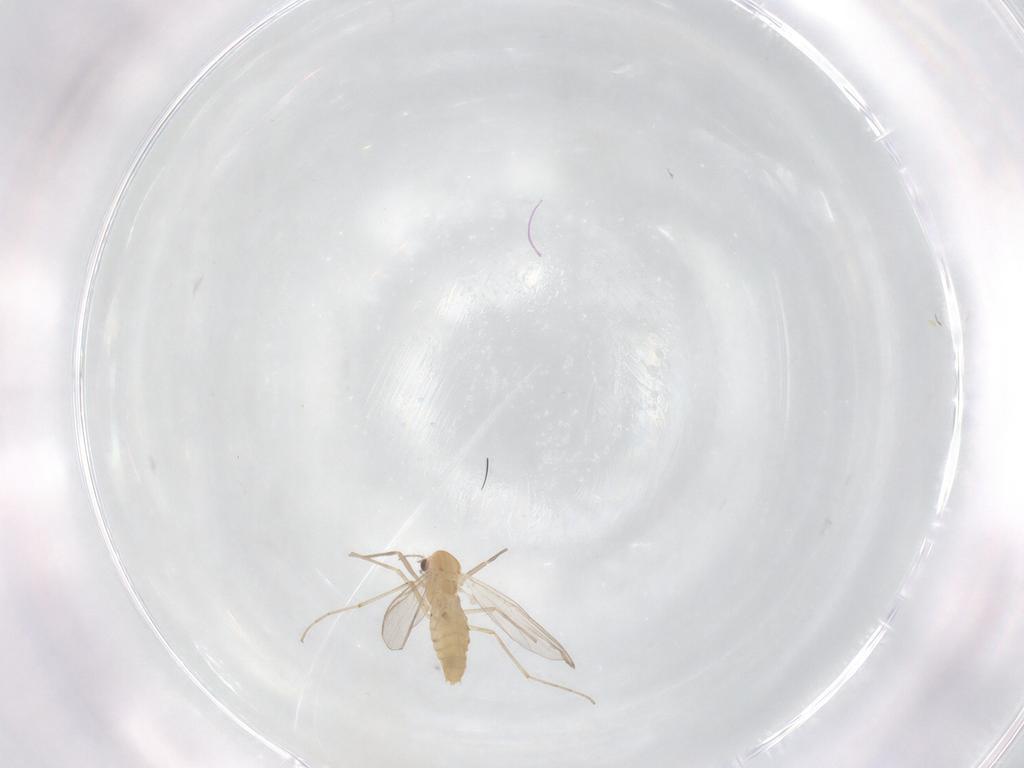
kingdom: Animalia
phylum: Arthropoda
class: Insecta
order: Diptera
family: Chironomidae
